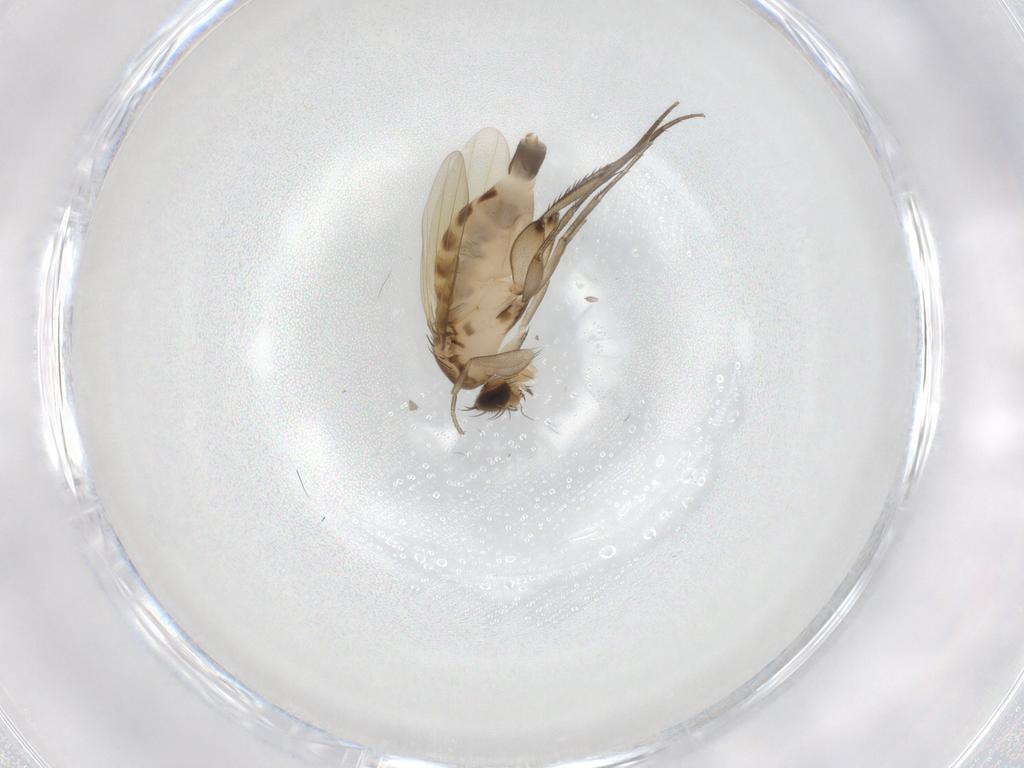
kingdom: Animalia
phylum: Arthropoda
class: Insecta
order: Diptera
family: Phoridae
